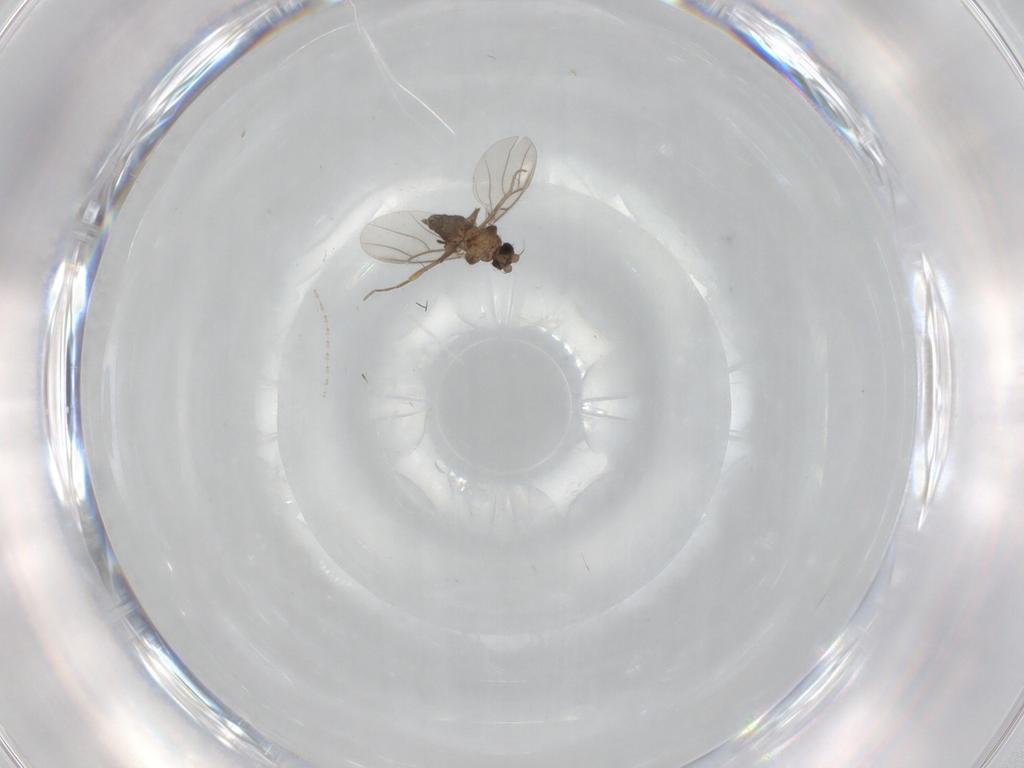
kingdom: Animalia
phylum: Arthropoda
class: Insecta
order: Diptera
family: Phoridae
